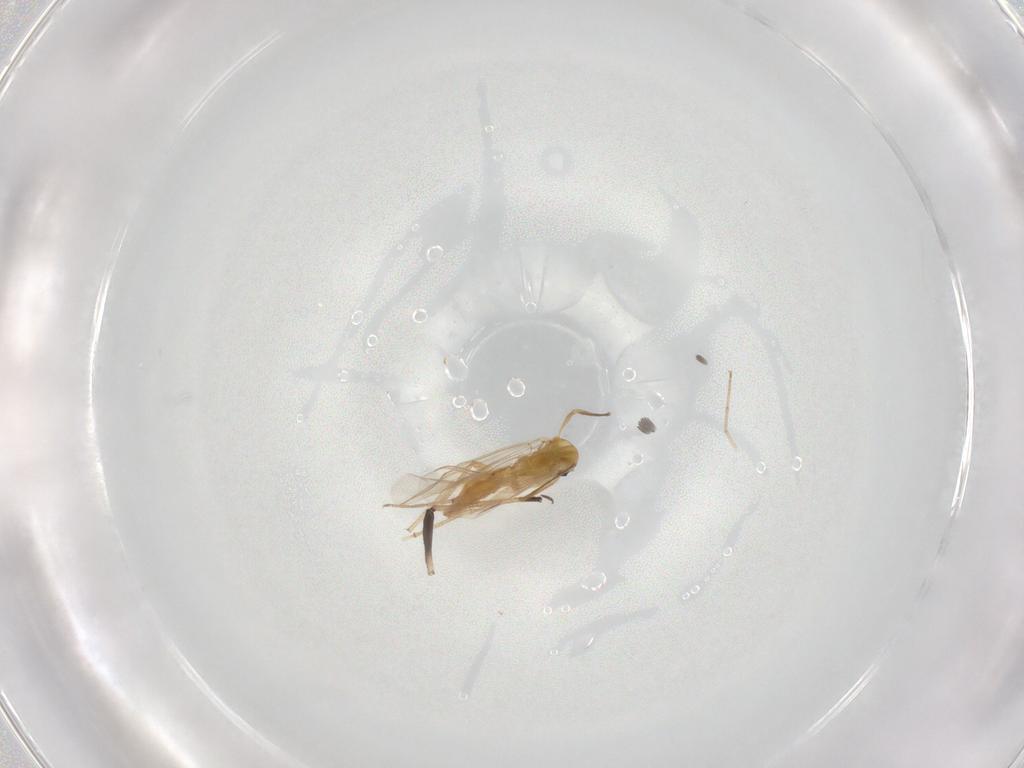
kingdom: Animalia
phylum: Arthropoda
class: Insecta
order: Diptera
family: Chironomidae
